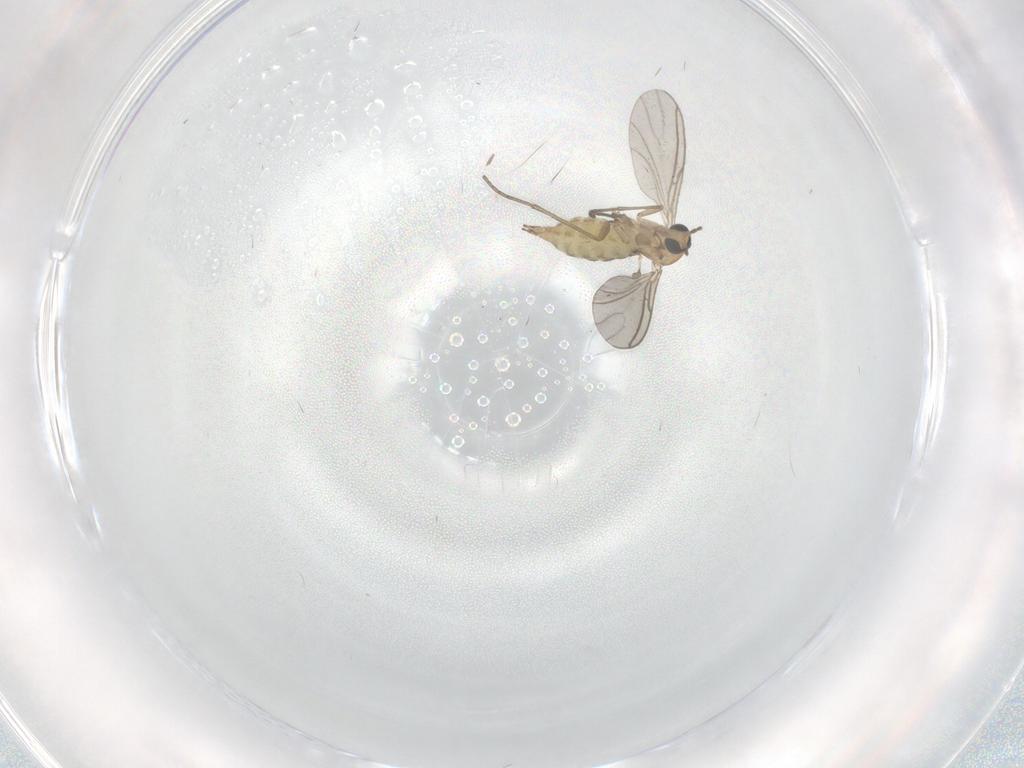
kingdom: Animalia
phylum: Arthropoda
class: Insecta
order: Diptera
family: Sciaridae
